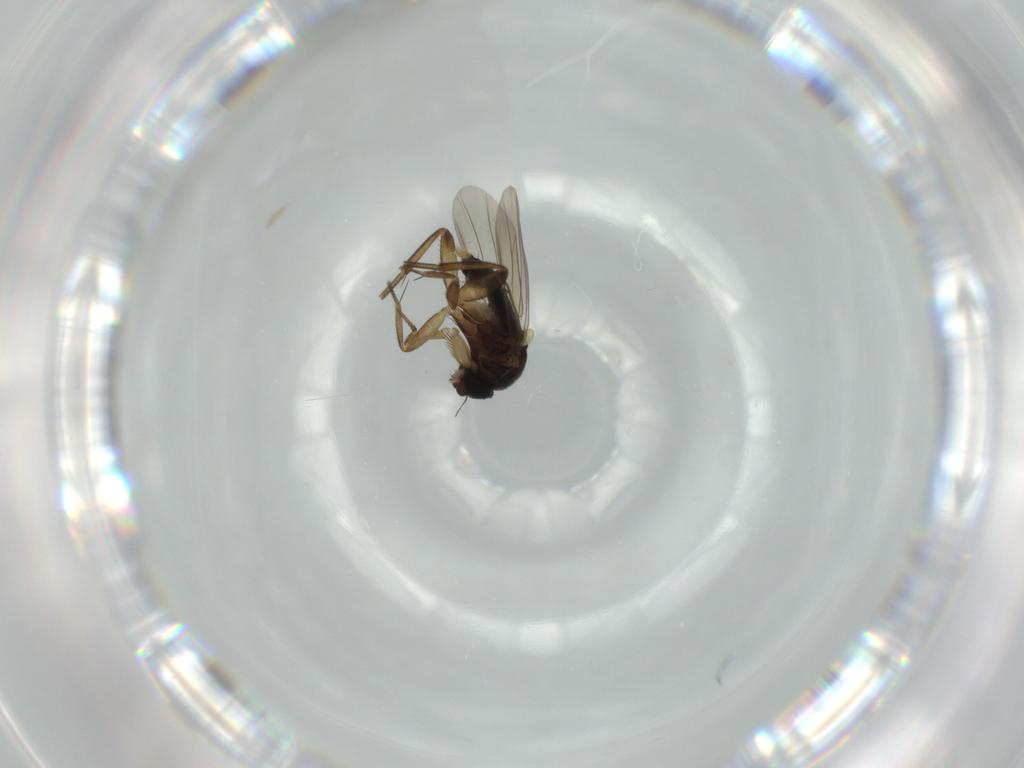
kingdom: Animalia
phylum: Arthropoda
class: Insecta
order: Diptera
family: Phoridae
